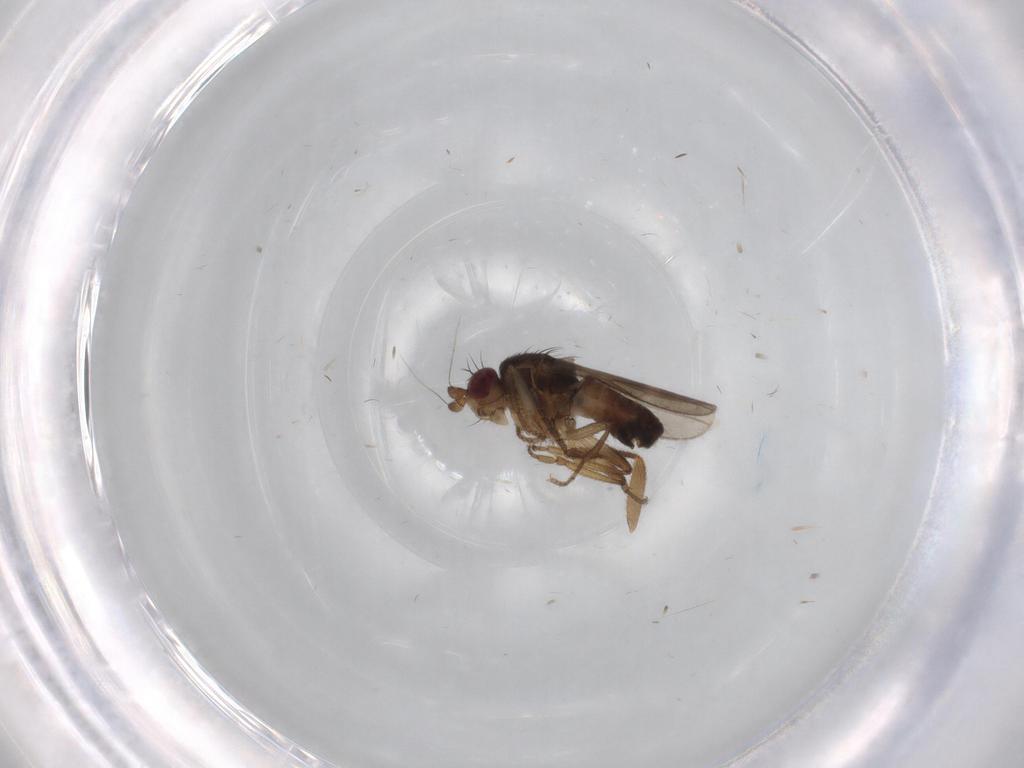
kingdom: Animalia
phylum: Arthropoda
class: Insecta
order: Diptera
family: Sphaeroceridae
